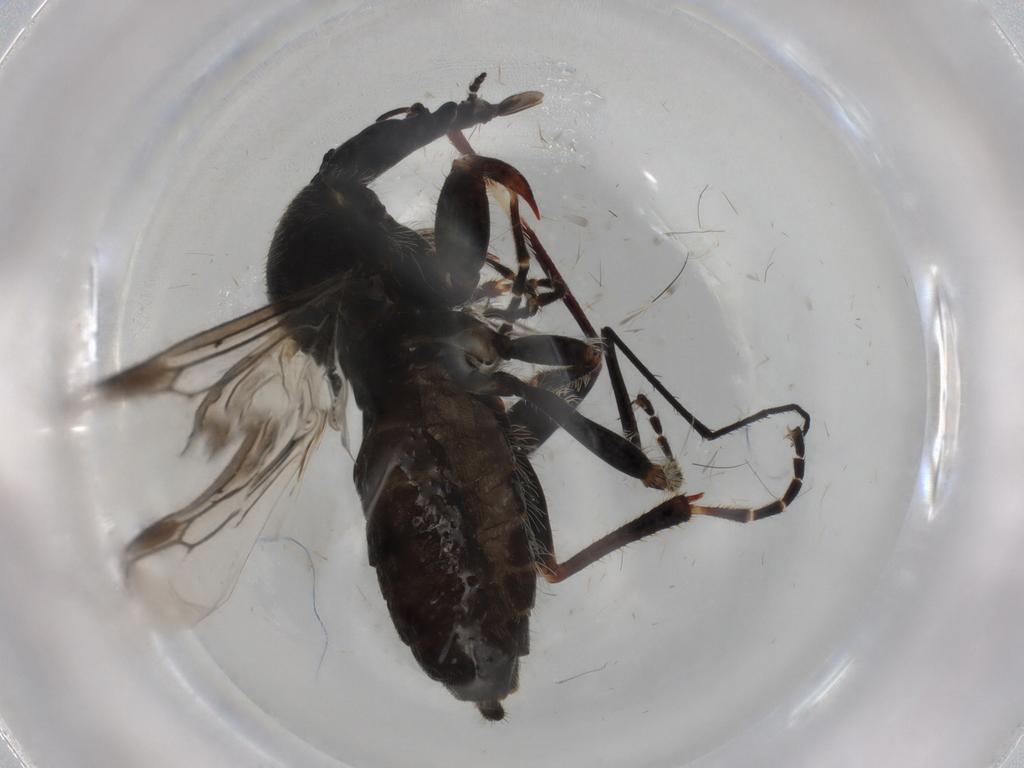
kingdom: Animalia
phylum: Arthropoda
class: Insecta
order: Diptera
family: Bombyliidae
